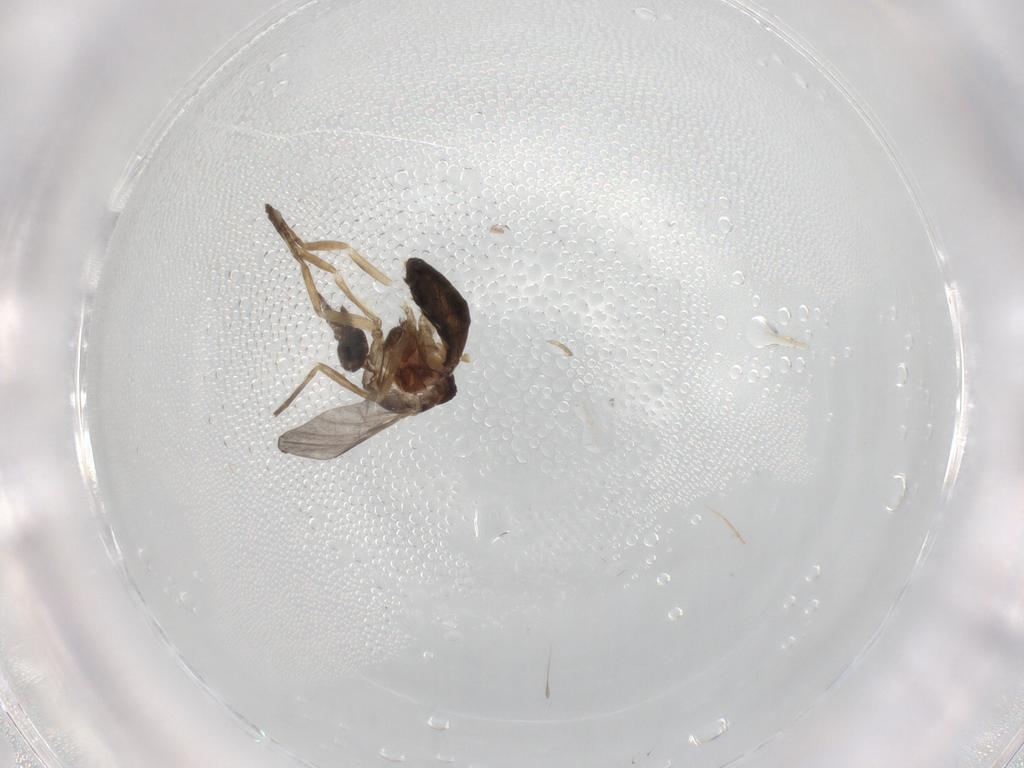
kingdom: Animalia
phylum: Arthropoda
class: Insecta
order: Diptera
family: Ceratopogonidae
